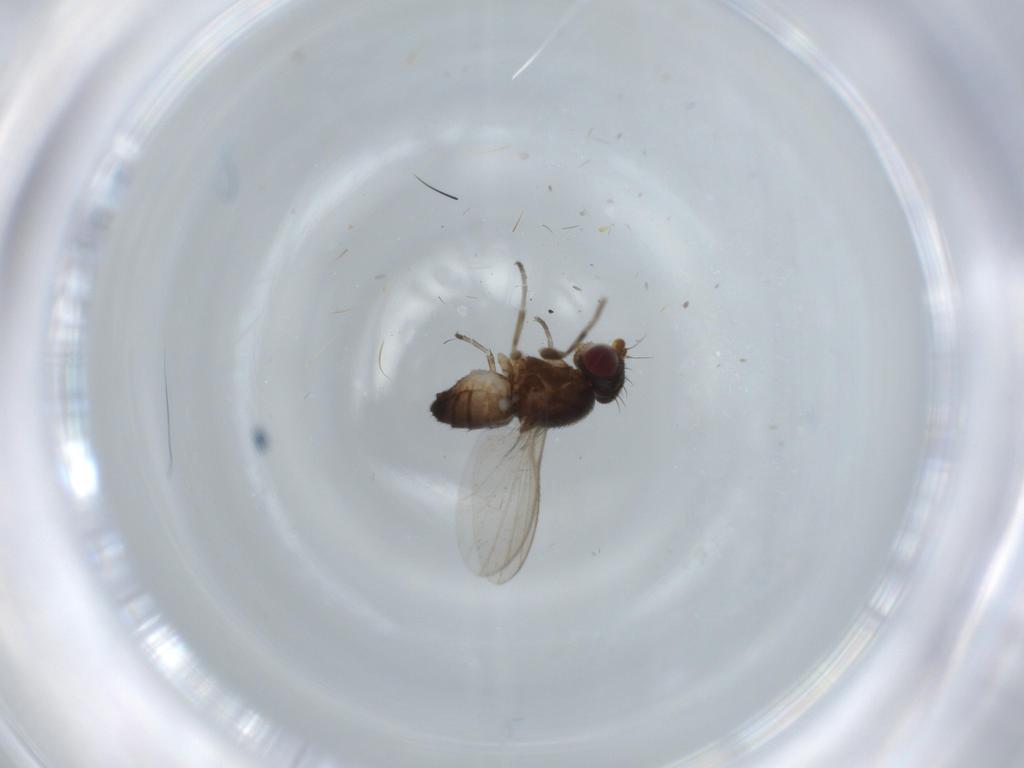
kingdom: Animalia
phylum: Arthropoda
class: Insecta
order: Diptera
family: Heleomyzidae
